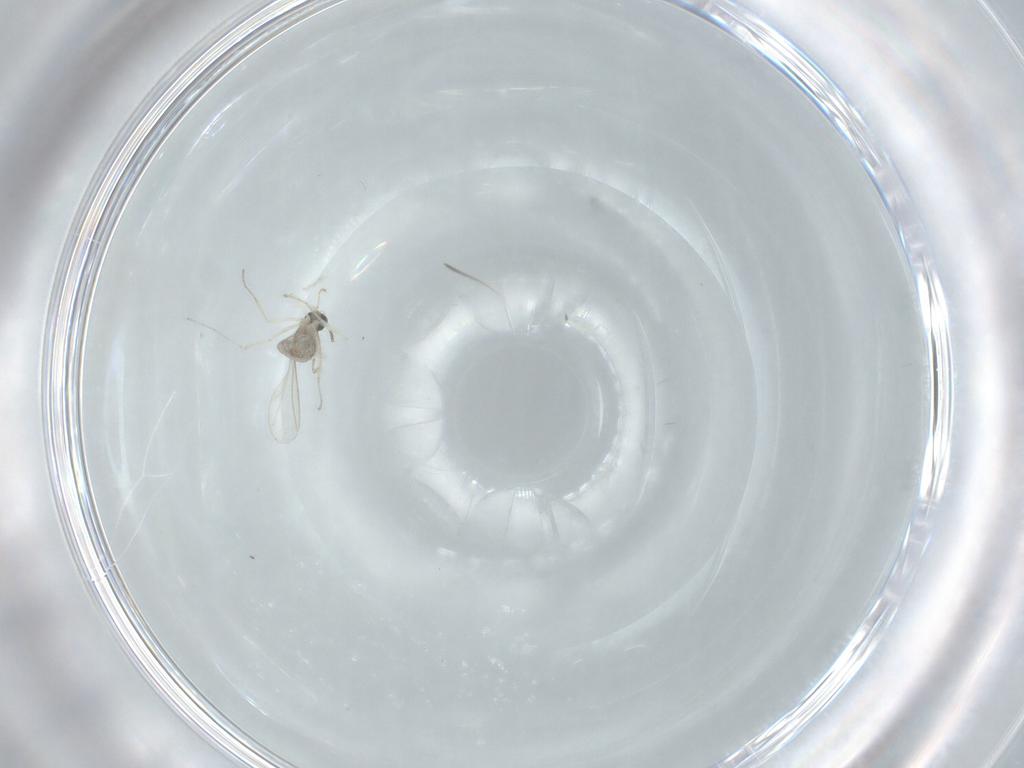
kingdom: Animalia
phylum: Arthropoda
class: Insecta
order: Diptera
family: Cecidomyiidae
